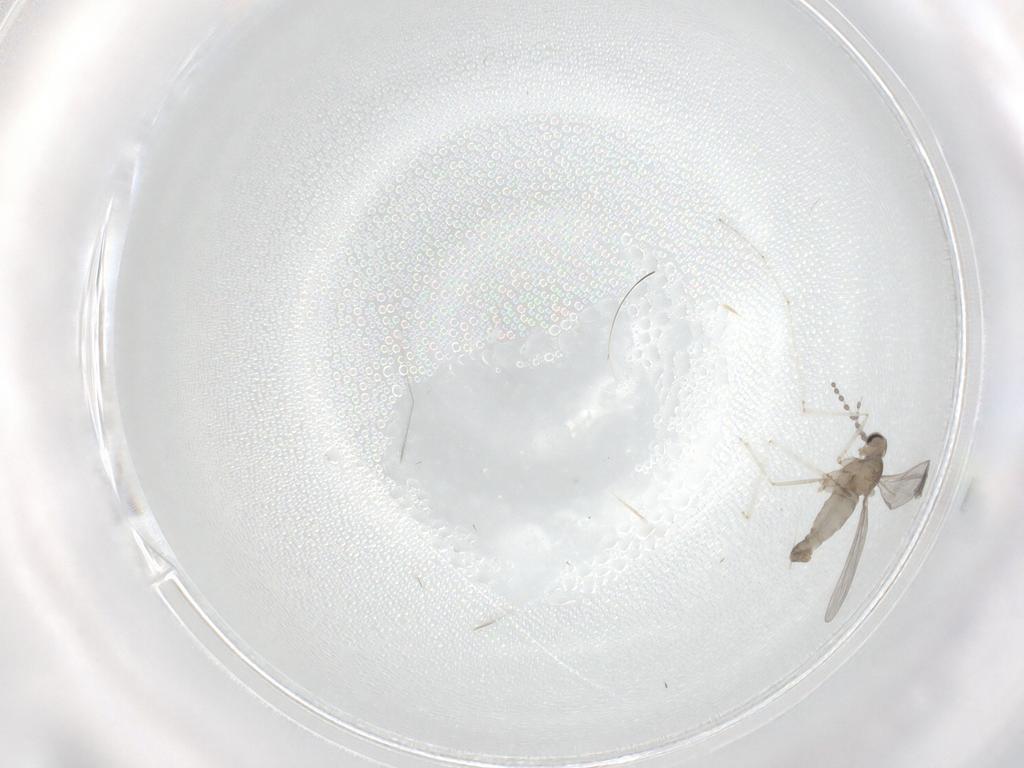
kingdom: Animalia
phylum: Arthropoda
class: Insecta
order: Diptera
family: Cecidomyiidae
